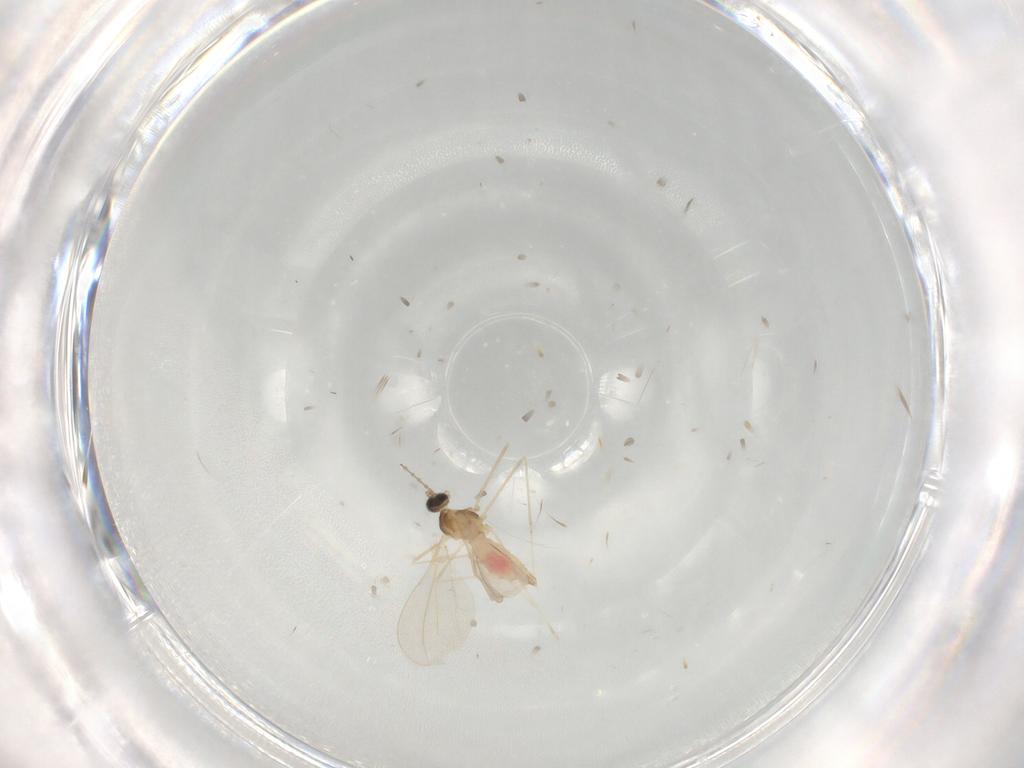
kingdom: Animalia
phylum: Arthropoda
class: Insecta
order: Diptera
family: Cecidomyiidae
